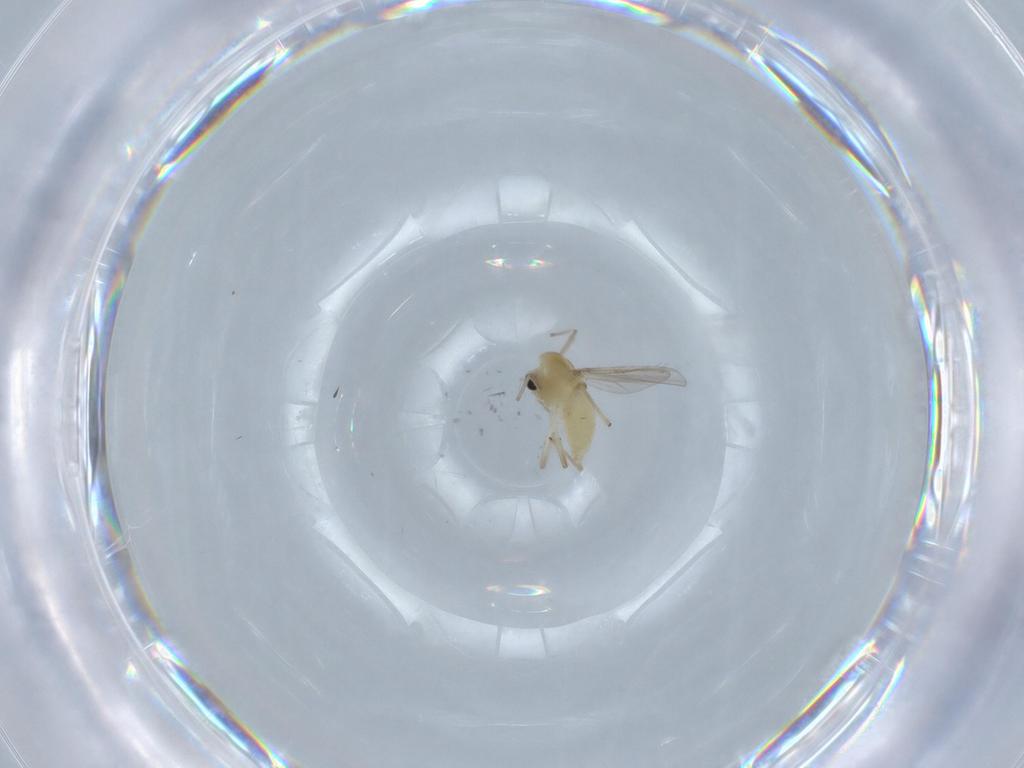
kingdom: Animalia
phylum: Arthropoda
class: Insecta
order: Diptera
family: Chironomidae
